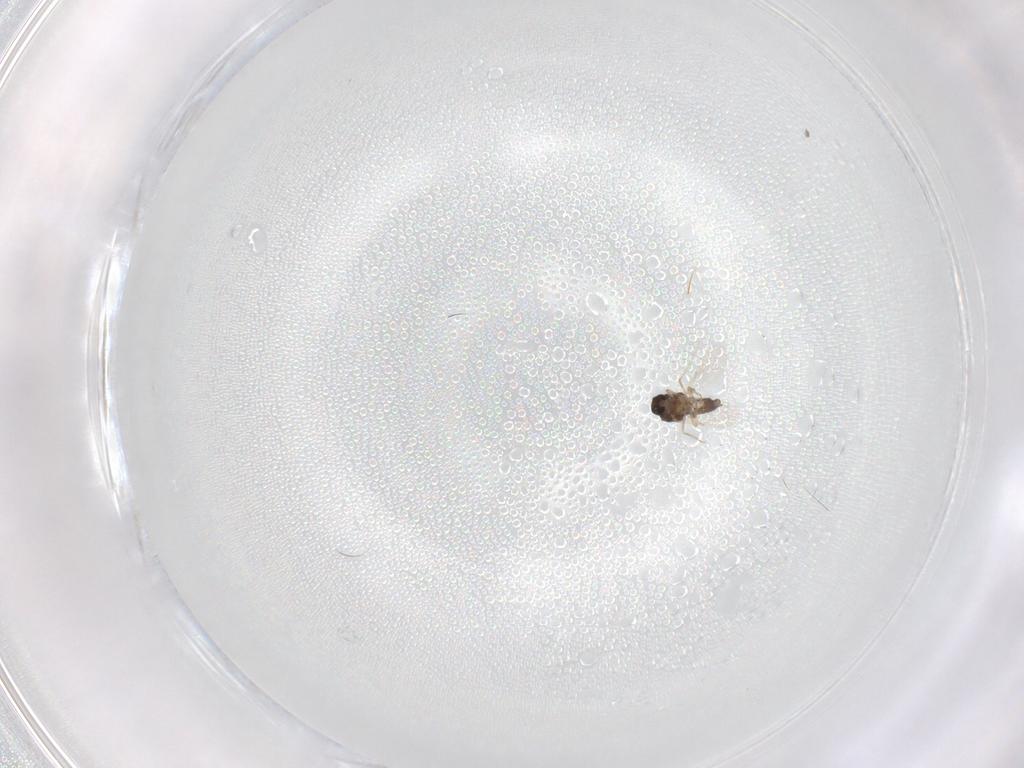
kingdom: Animalia
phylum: Arthropoda
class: Insecta
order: Diptera
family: Ceratopogonidae
